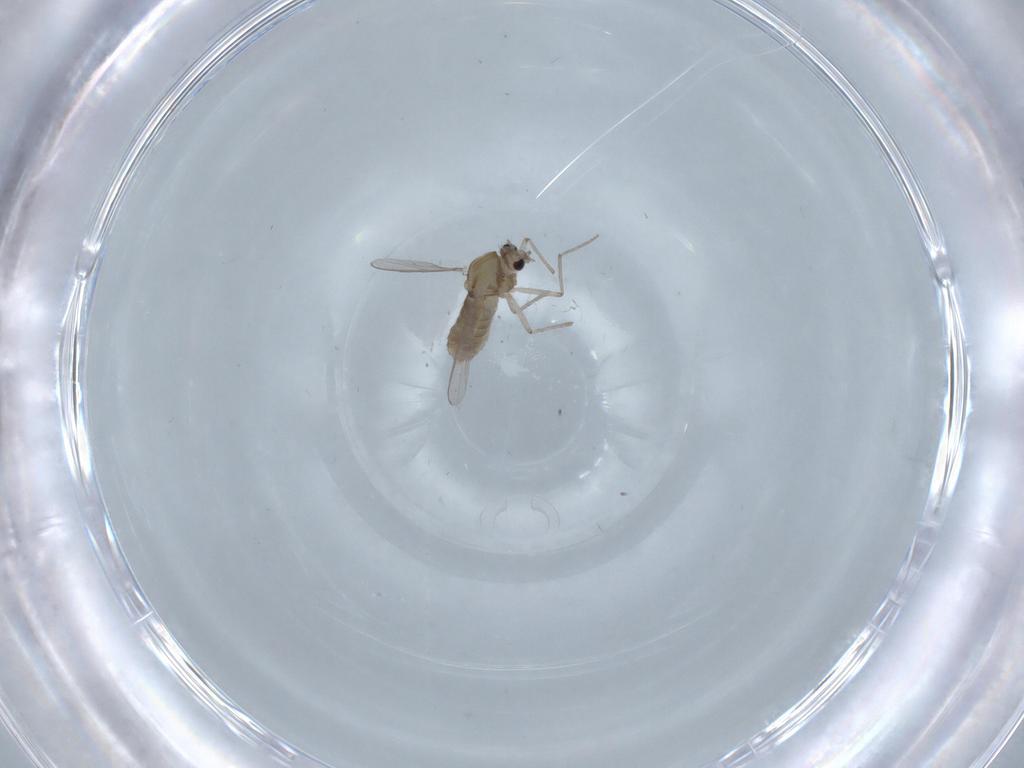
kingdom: Animalia
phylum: Arthropoda
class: Insecta
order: Diptera
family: Chironomidae
